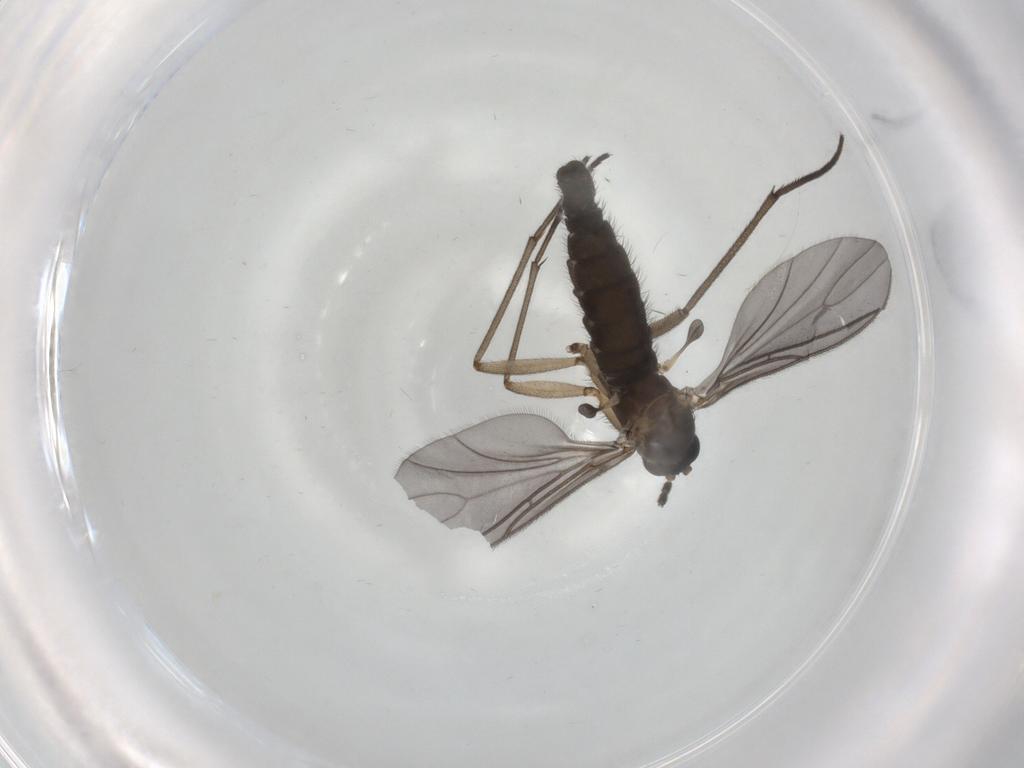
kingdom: Animalia
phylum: Arthropoda
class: Insecta
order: Diptera
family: Sciaridae
